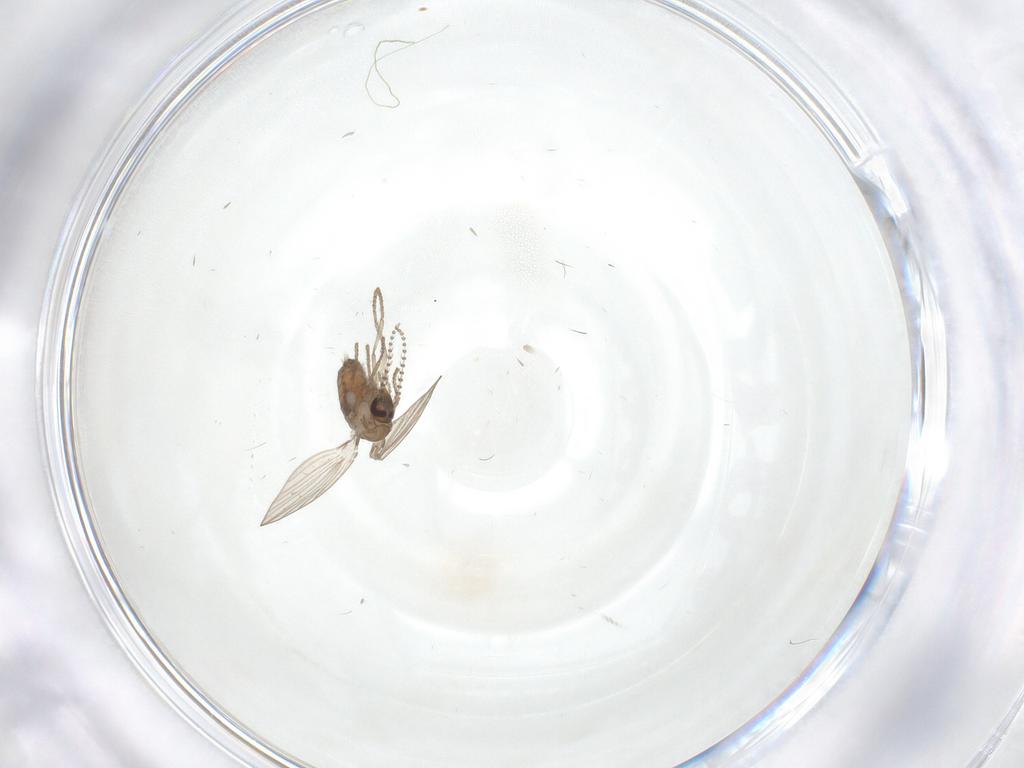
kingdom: Animalia
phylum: Arthropoda
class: Insecta
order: Diptera
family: Psychodidae
